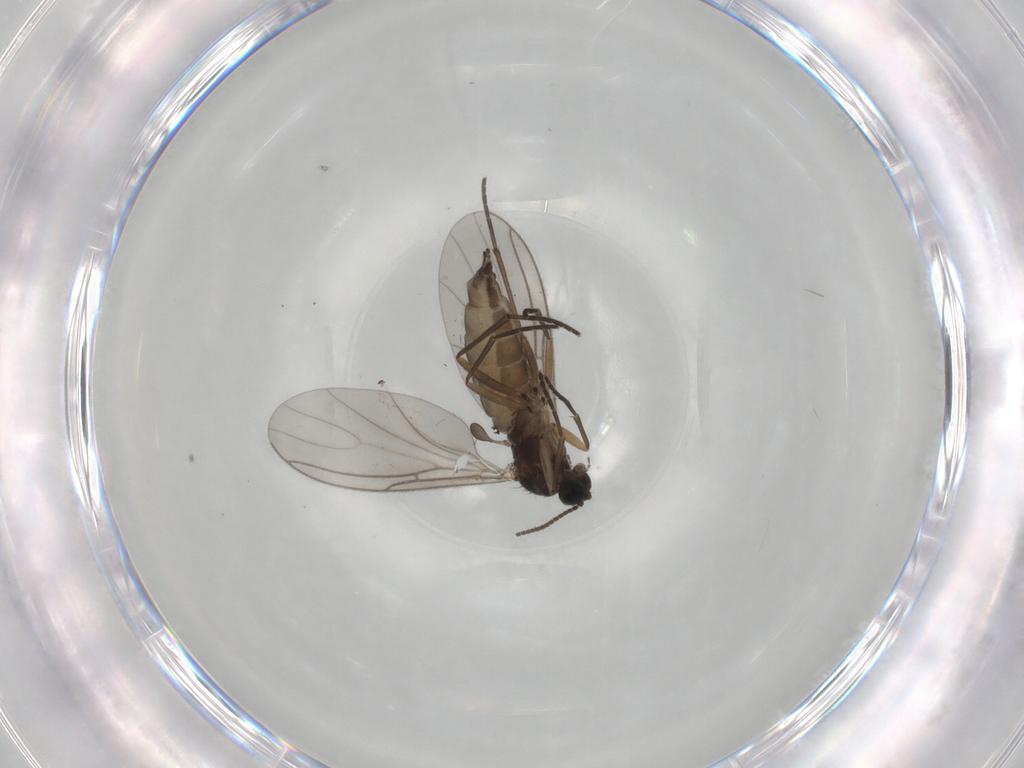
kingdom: Animalia
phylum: Arthropoda
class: Insecta
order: Diptera
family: Sciaridae
